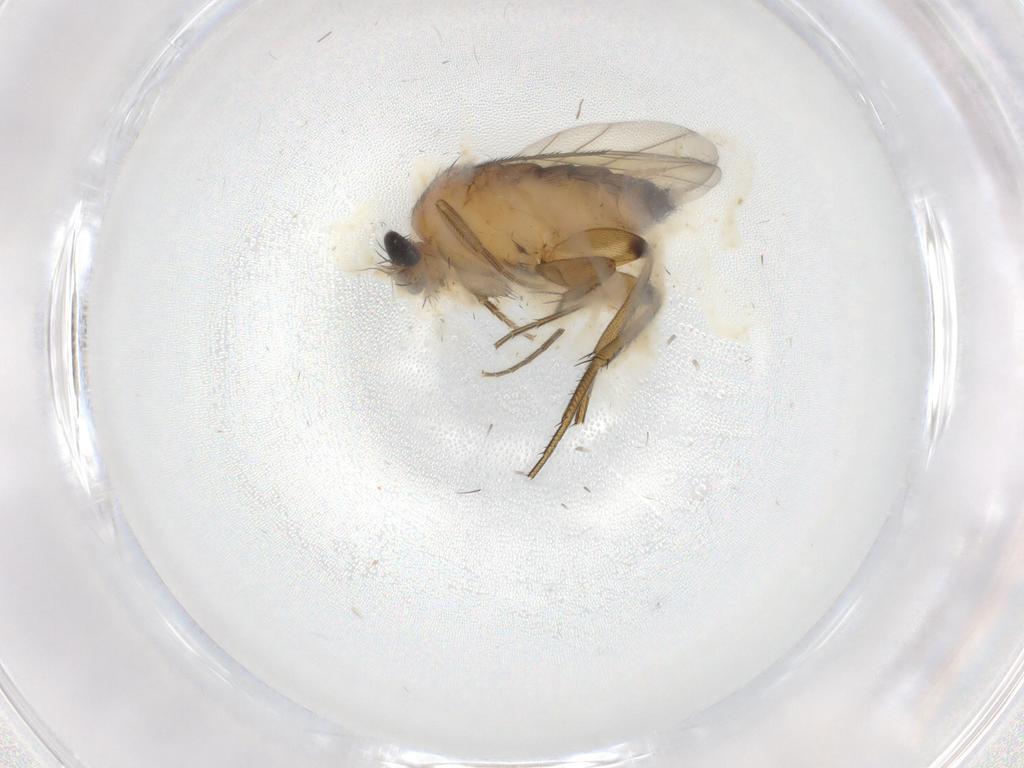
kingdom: Animalia
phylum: Arthropoda
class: Insecta
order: Diptera
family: Dolichopodidae
